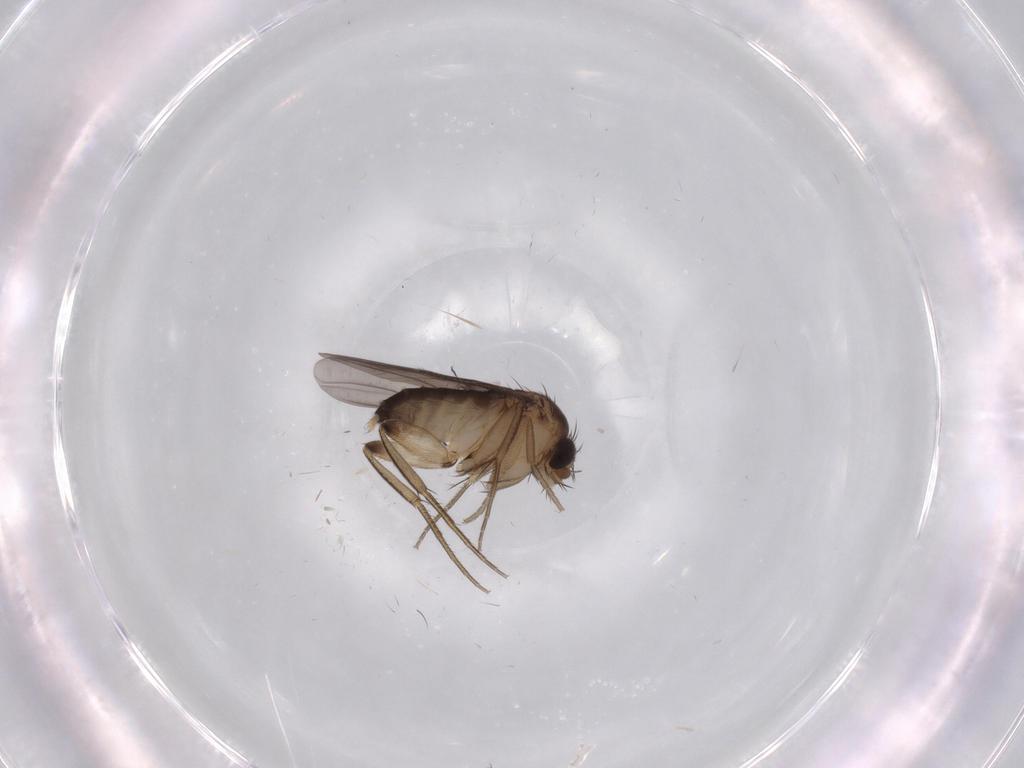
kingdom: Animalia
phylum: Arthropoda
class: Insecta
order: Diptera
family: Phoridae
